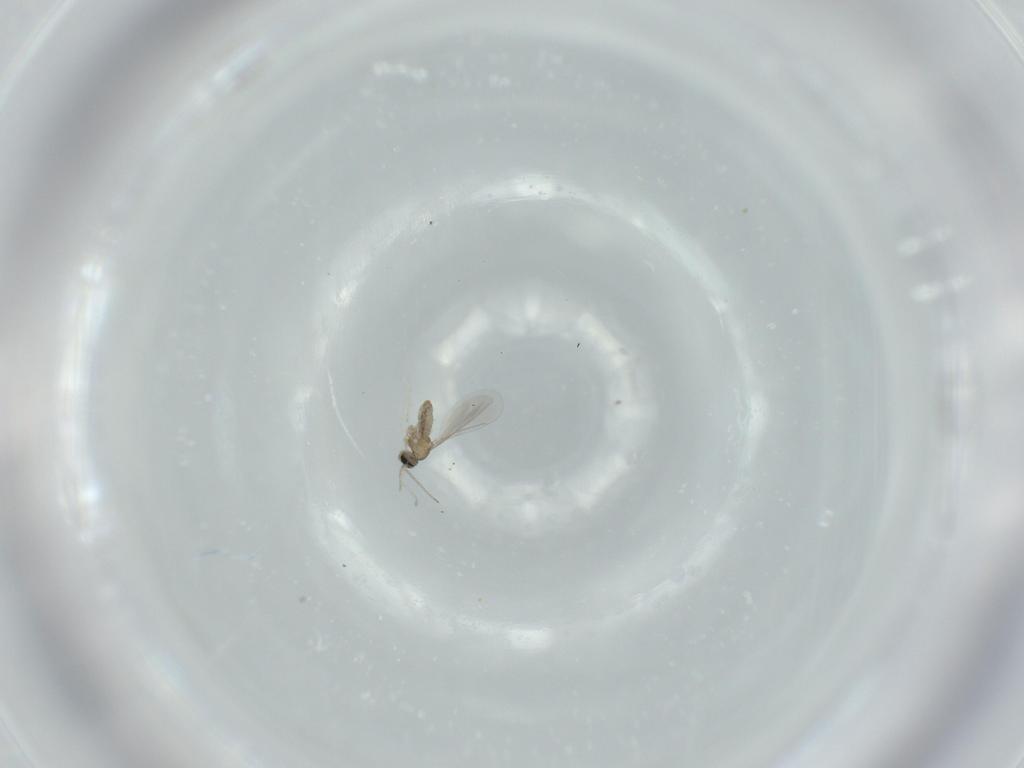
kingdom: Animalia
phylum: Arthropoda
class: Insecta
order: Diptera
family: Cecidomyiidae
